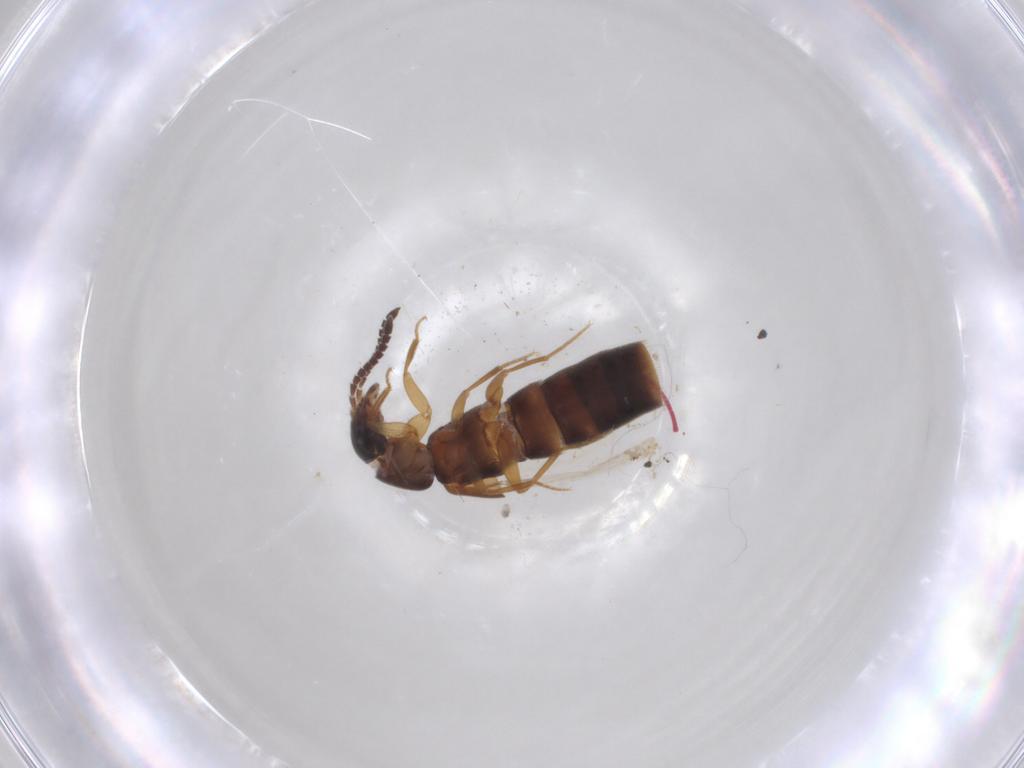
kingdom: Animalia
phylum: Arthropoda
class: Insecta
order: Coleoptera
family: Staphylinidae
